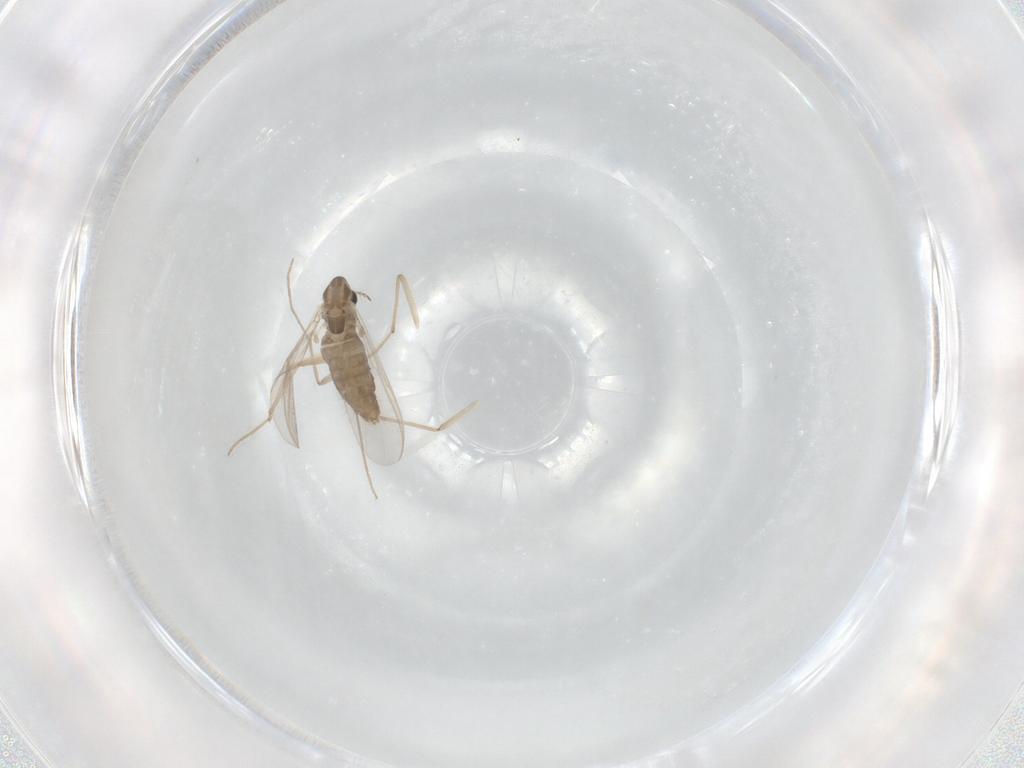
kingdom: Animalia
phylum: Arthropoda
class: Insecta
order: Diptera
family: Chironomidae
